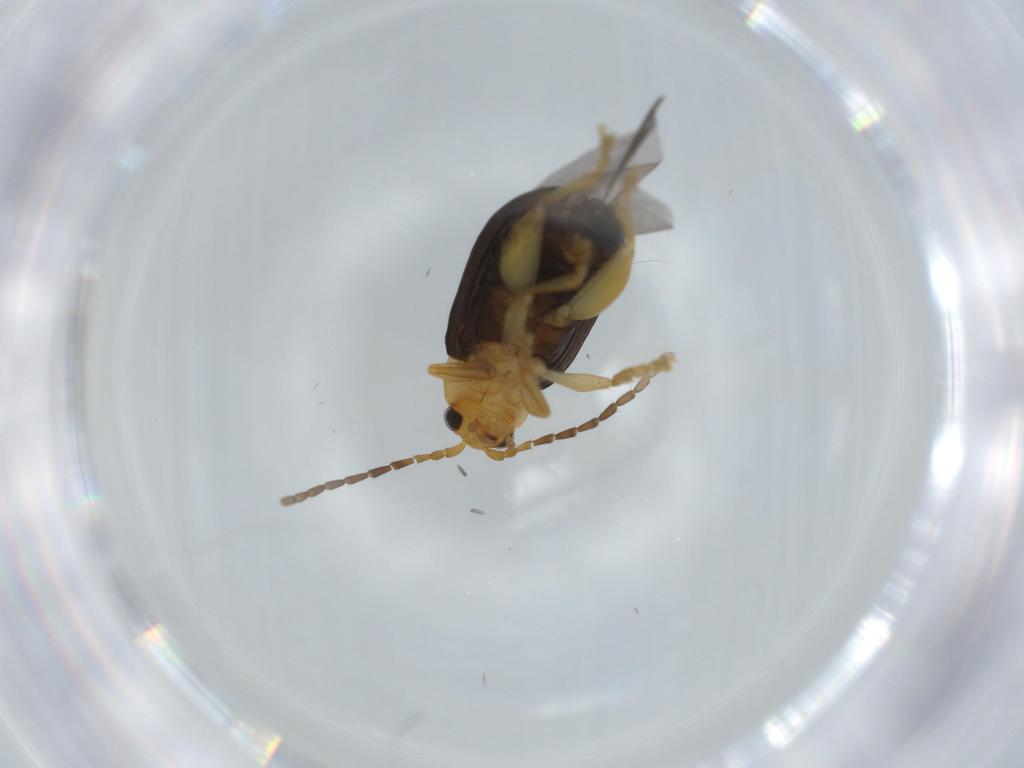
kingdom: Animalia
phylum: Arthropoda
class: Insecta
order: Coleoptera
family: Chrysomelidae
